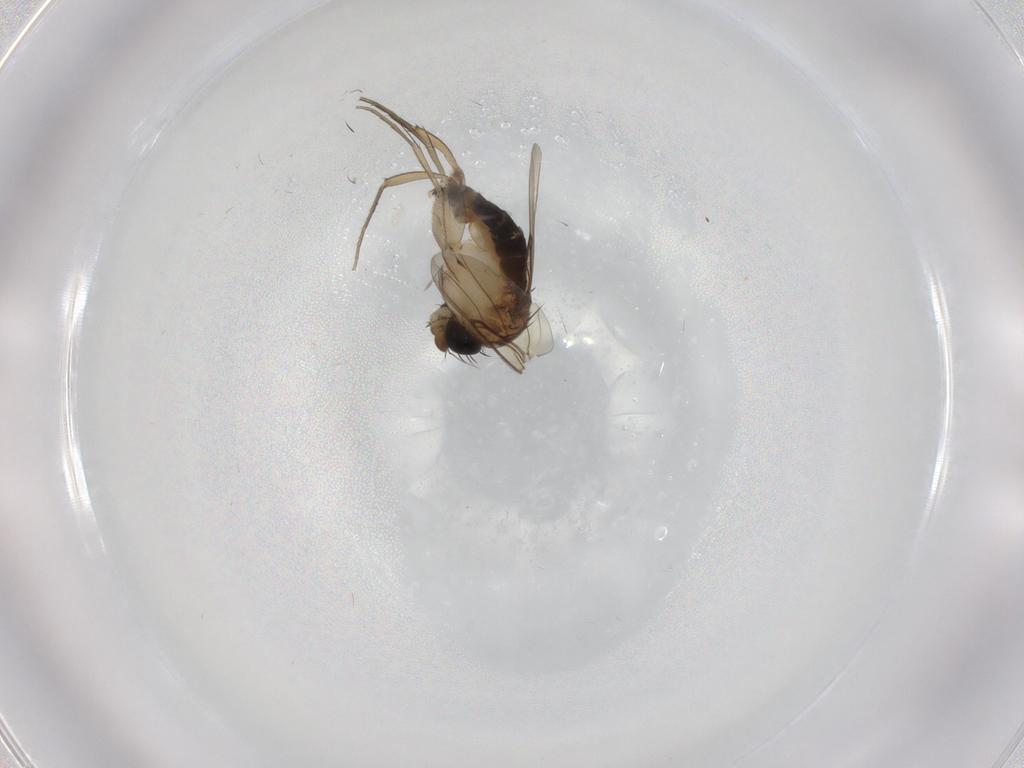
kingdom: Animalia
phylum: Arthropoda
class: Insecta
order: Diptera
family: Phoridae
